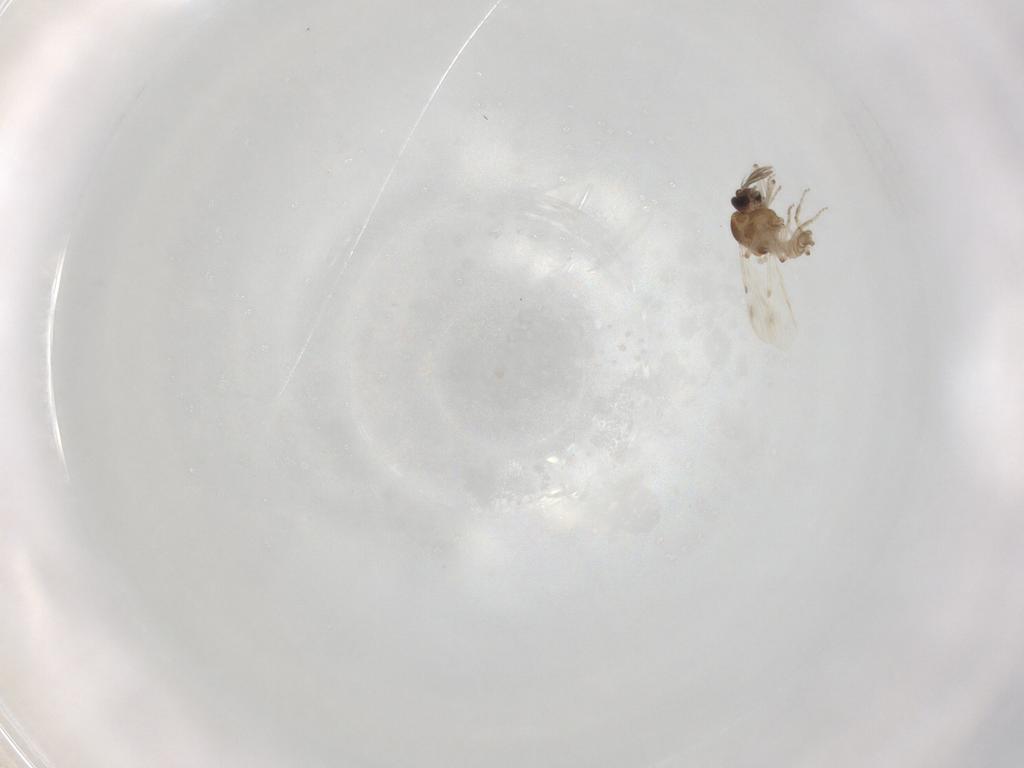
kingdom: Animalia
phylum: Arthropoda
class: Insecta
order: Diptera
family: Ceratopogonidae
